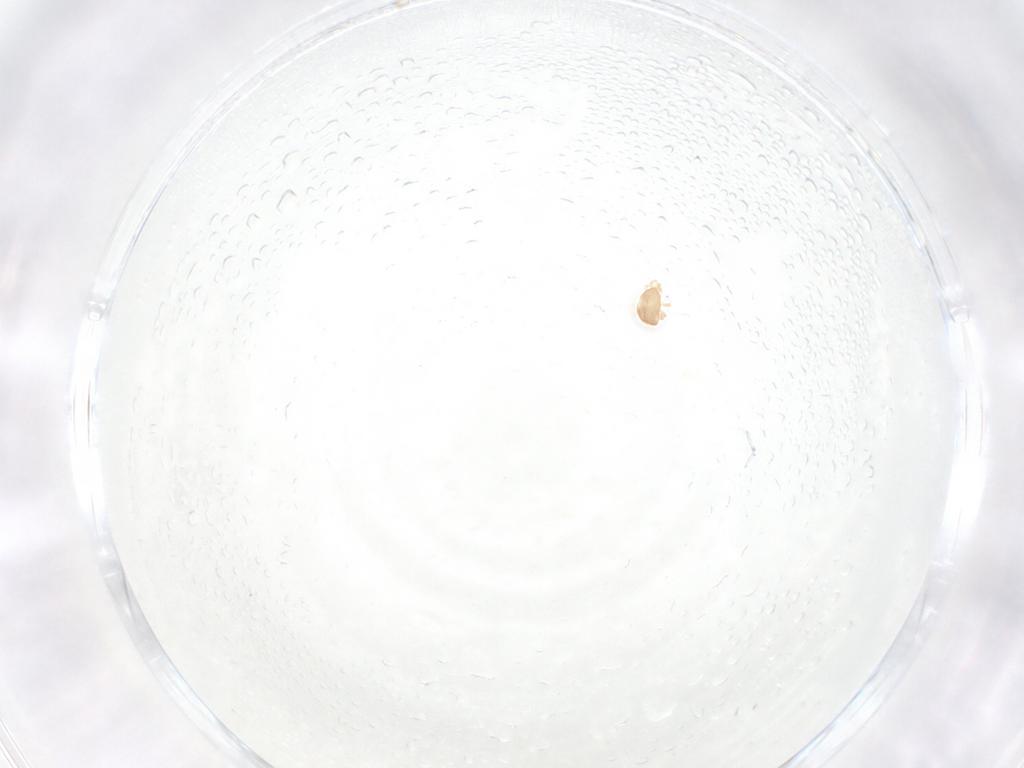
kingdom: Animalia
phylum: Arthropoda
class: Arachnida
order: Mesostigmata
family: Ascidae
